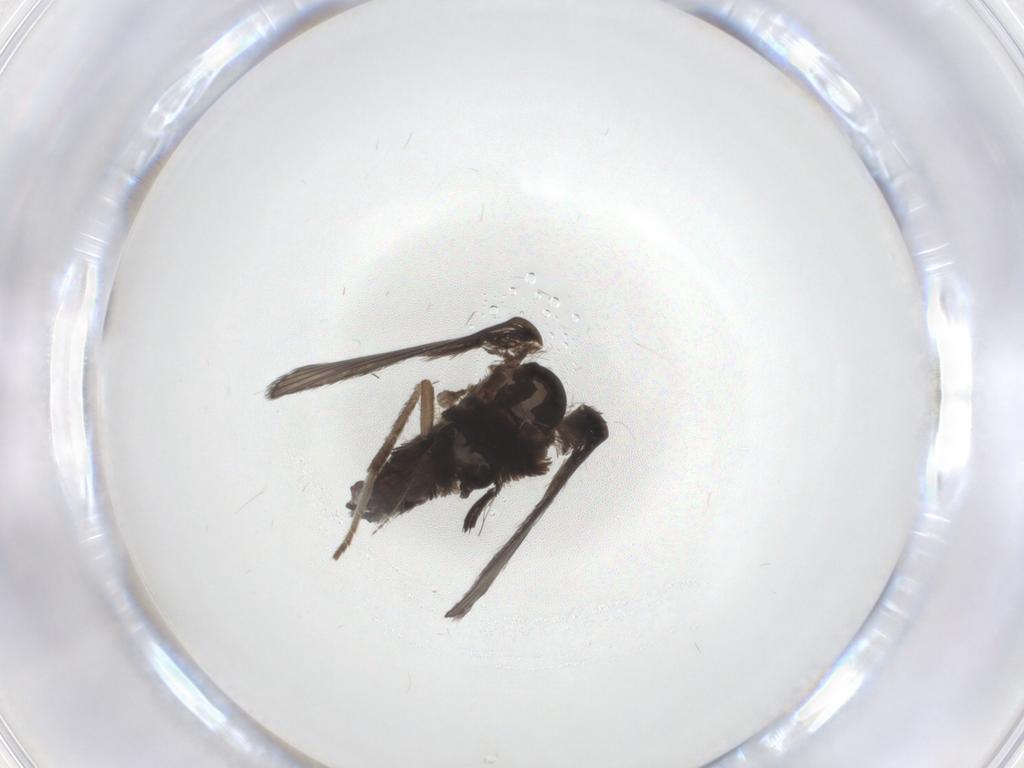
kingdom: Animalia
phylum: Arthropoda
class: Insecta
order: Diptera
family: Psychodidae
